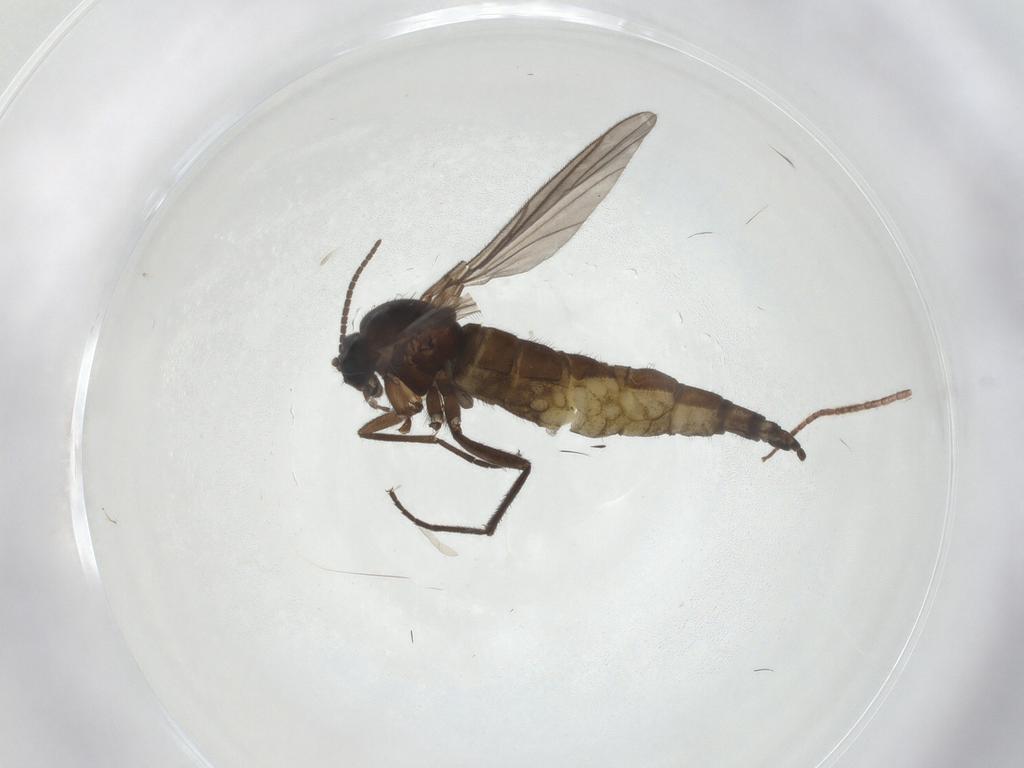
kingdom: Animalia
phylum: Arthropoda
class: Insecta
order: Diptera
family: Sciaridae
